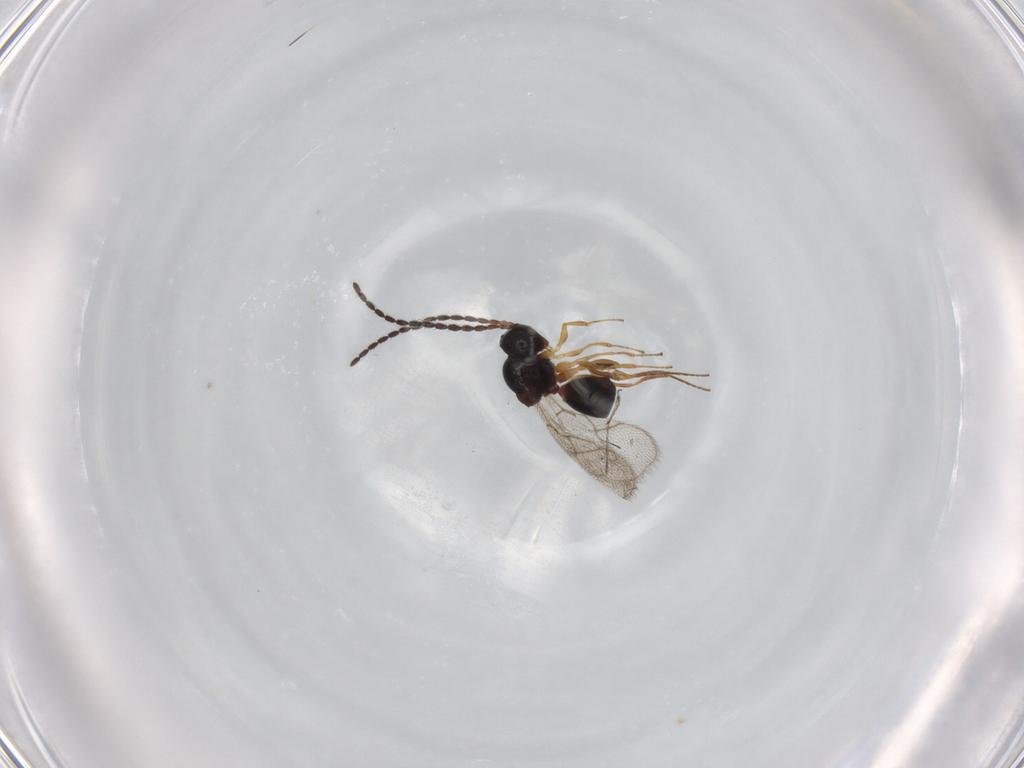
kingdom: Animalia
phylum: Arthropoda
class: Insecta
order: Hymenoptera
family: Figitidae
